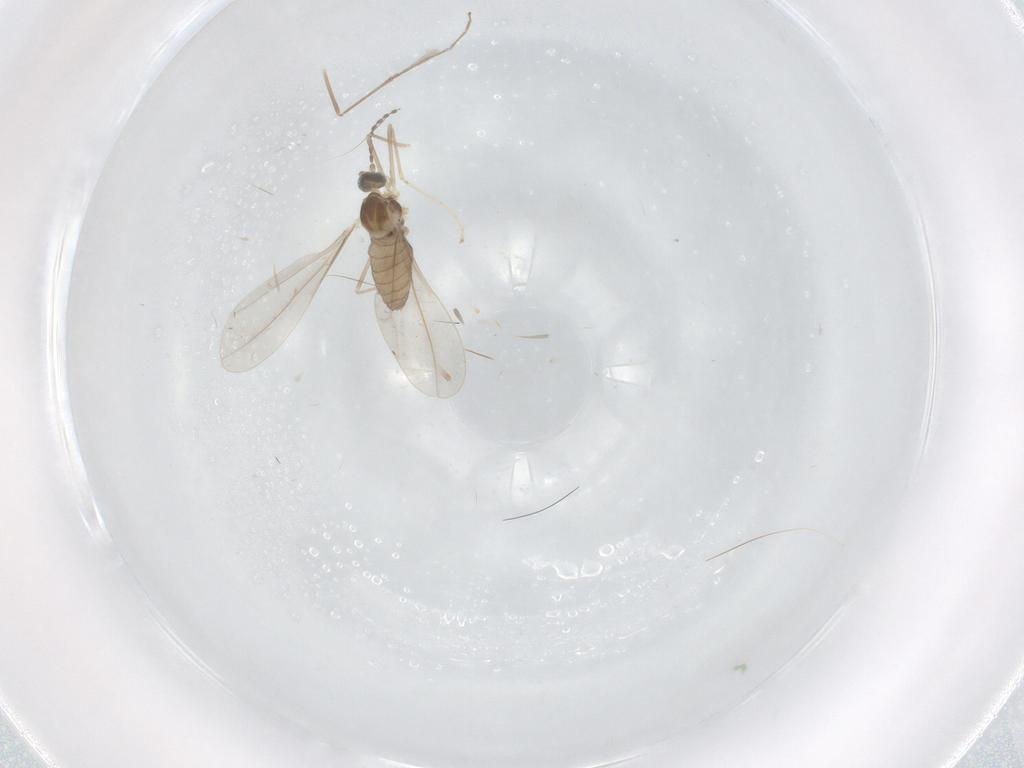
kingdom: Animalia
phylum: Arthropoda
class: Insecta
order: Diptera
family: Cecidomyiidae
